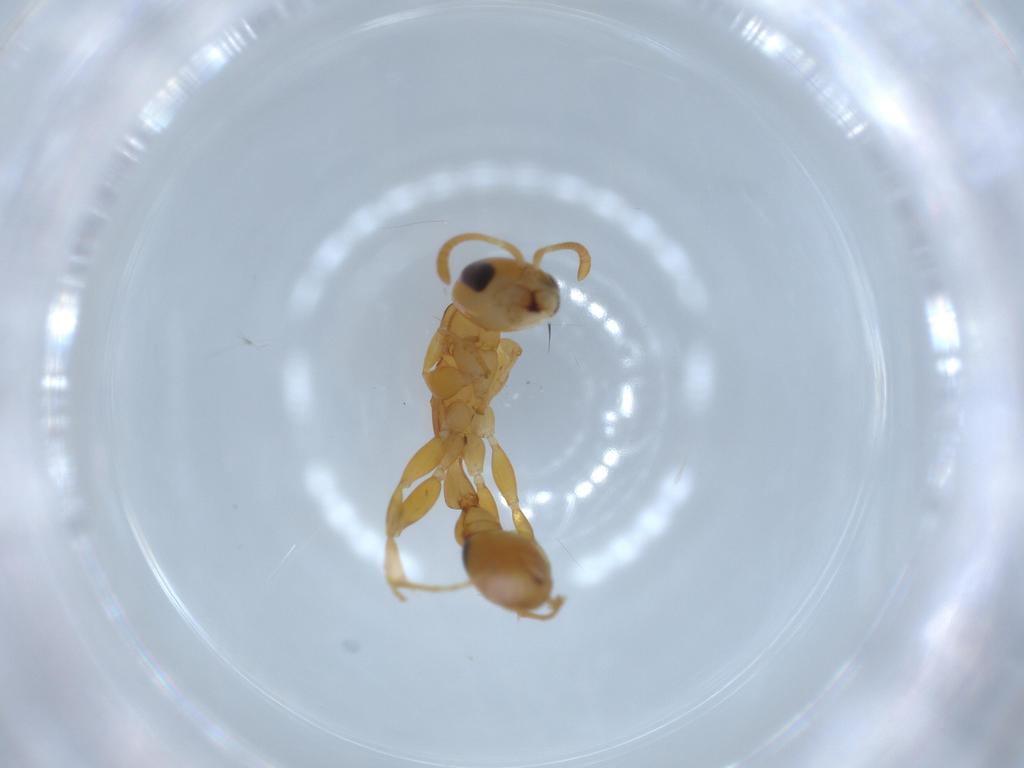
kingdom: Animalia
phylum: Arthropoda
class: Insecta
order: Hymenoptera
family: Formicidae
